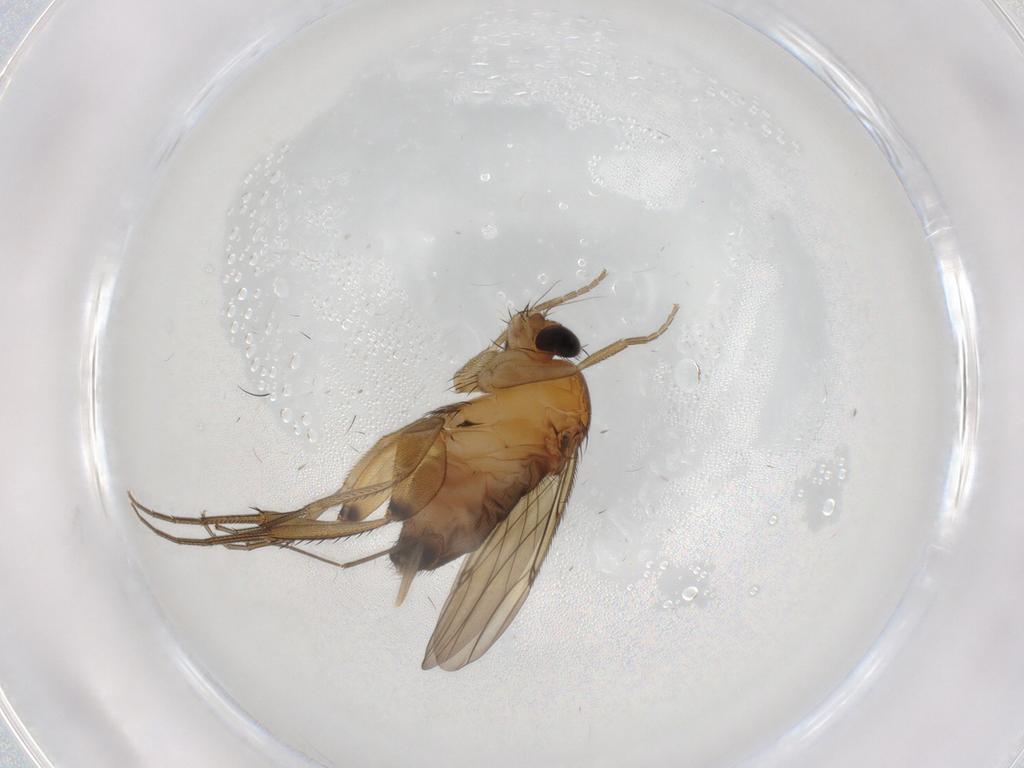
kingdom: Animalia
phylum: Arthropoda
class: Insecta
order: Diptera
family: Phoridae
